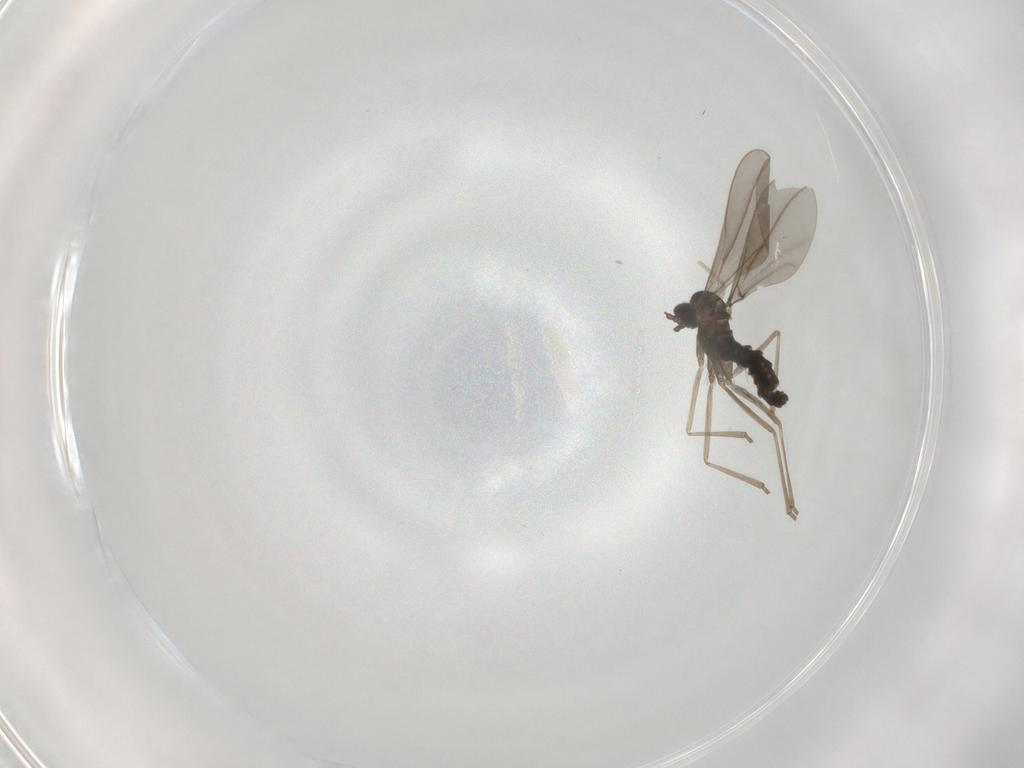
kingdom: Animalia
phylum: Arthropoda
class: Insecta
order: Diptera
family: Cecidomyiidae
